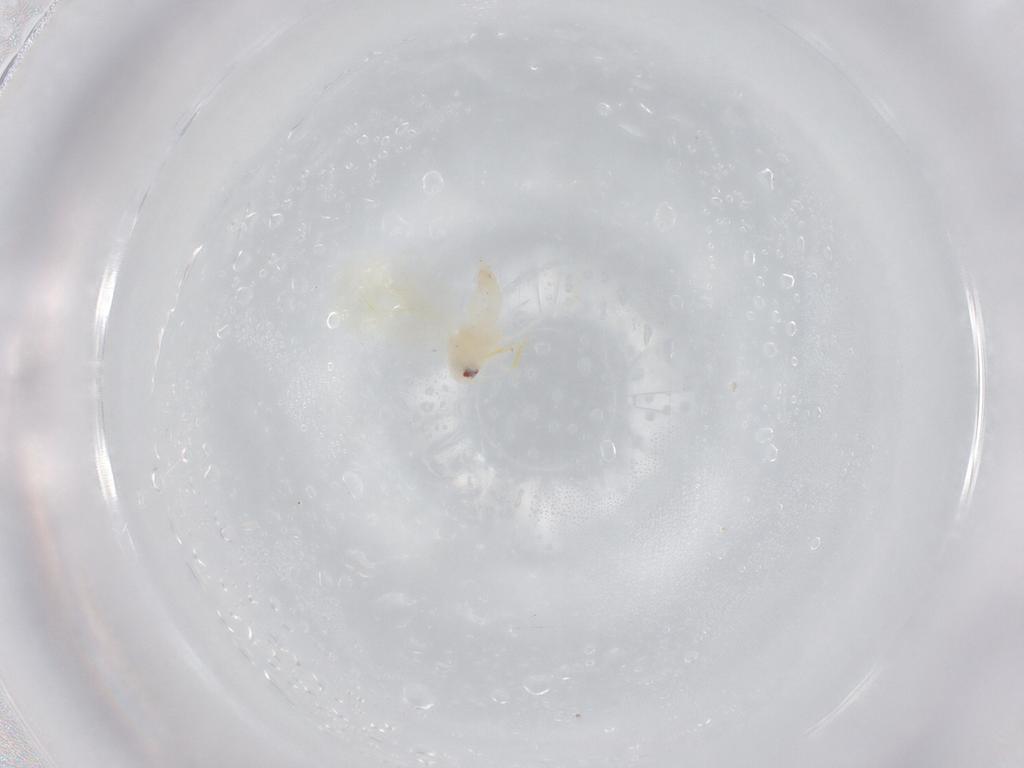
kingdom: Animalia
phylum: Arthropoda
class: Insecta
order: Hemiptera
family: Aleyrodidae
